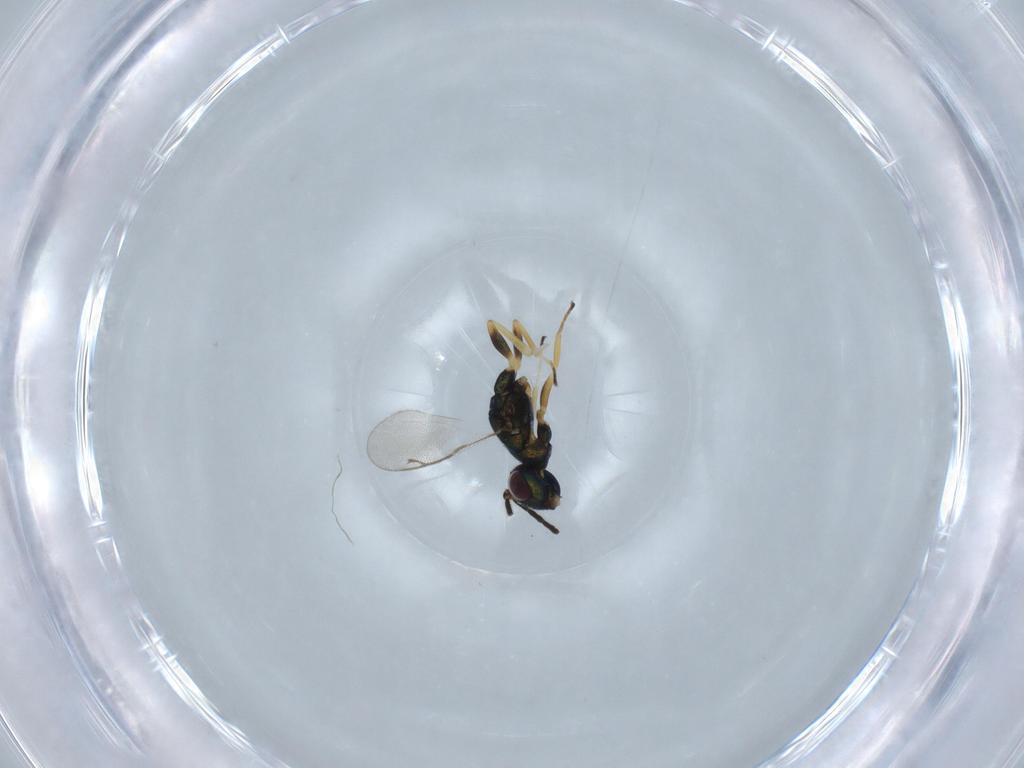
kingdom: Animalia
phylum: Arthropoda
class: Insecta
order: Hymenoptera
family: Eupelmidae
